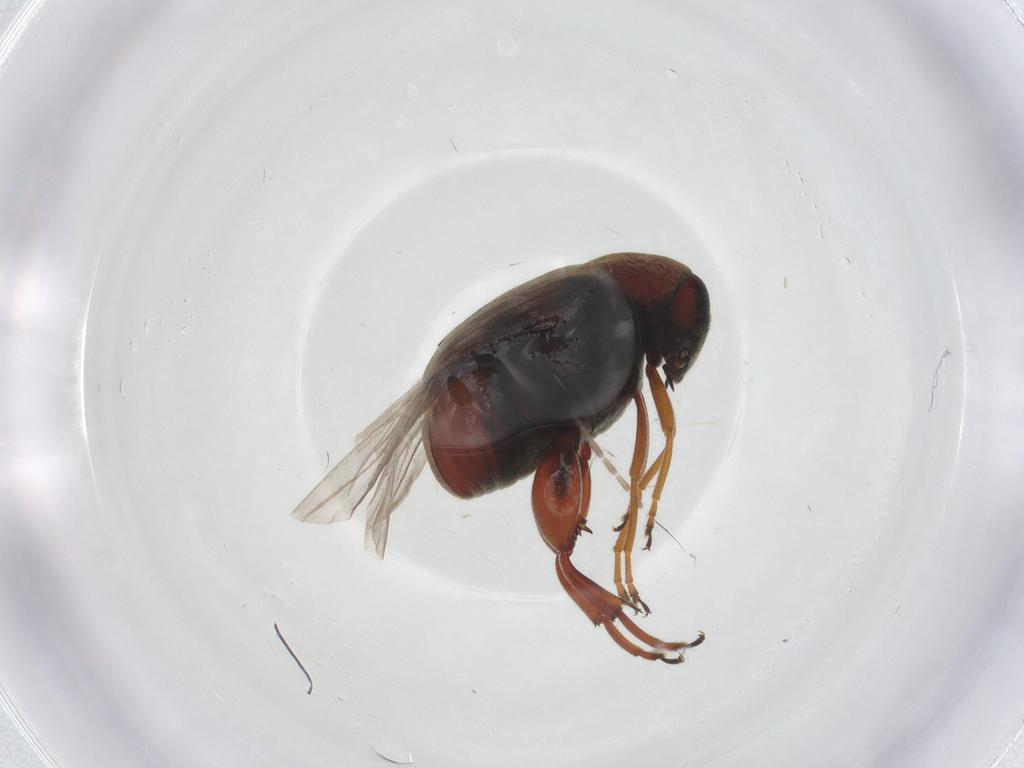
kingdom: Animalia
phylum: Arthropoda
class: Insecta
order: Coleoptera
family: Chrysomelidae
